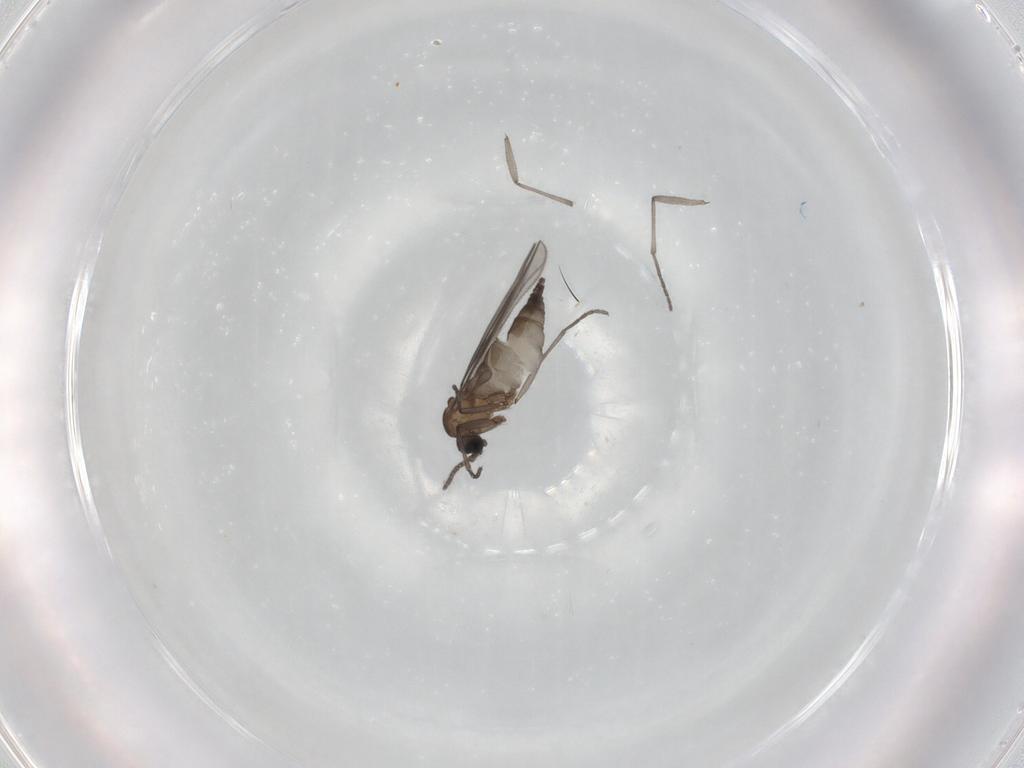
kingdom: Animalia
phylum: Arthropoda
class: Insecta
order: Diptera
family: Sciaridae
